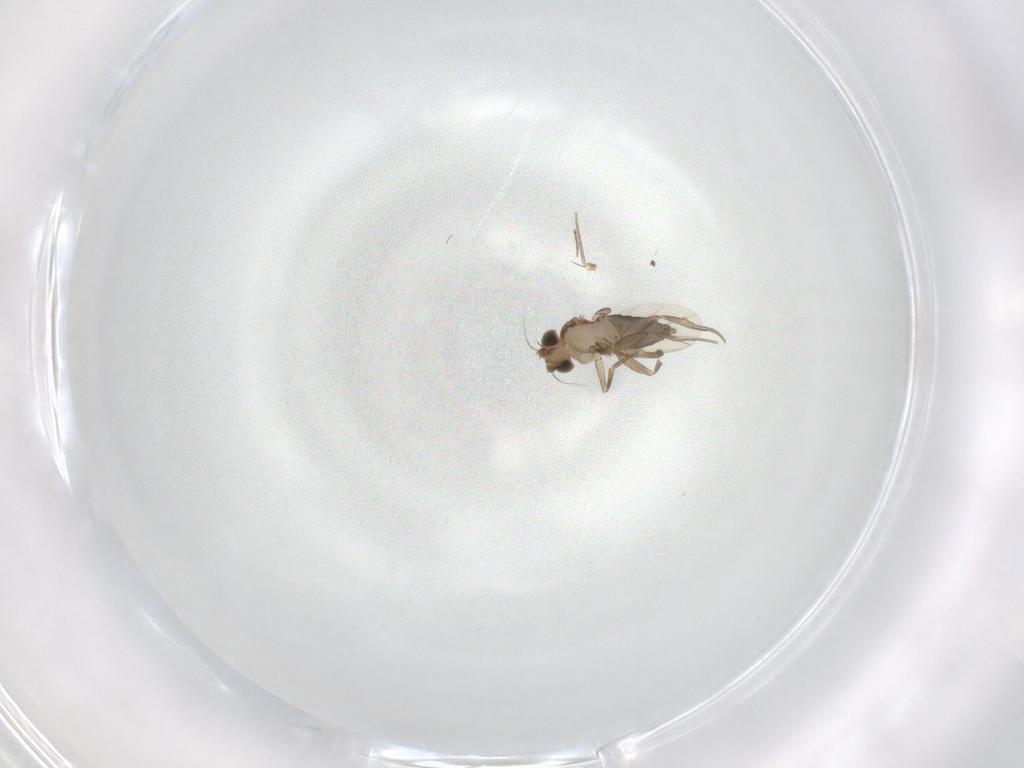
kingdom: Animalia
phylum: Arthropoda
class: Insecta
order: Diptera
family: Phoridae
